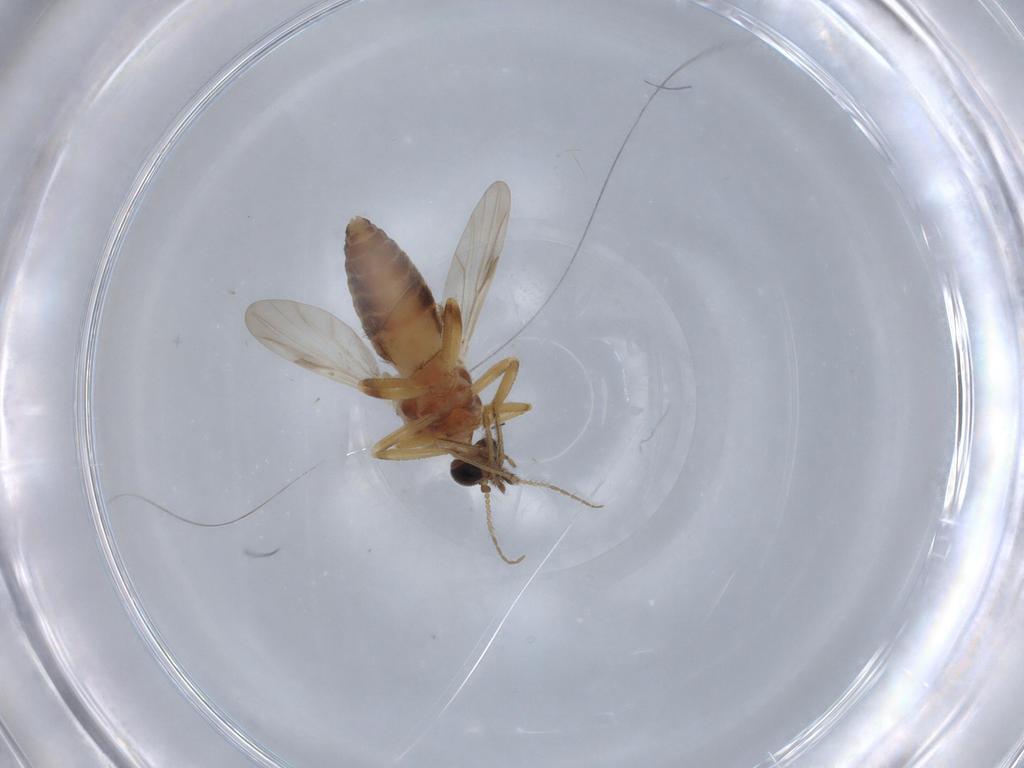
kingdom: Animalia
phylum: Arthropoda
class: Insecta
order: Diptera
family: Ceratopogonidae
